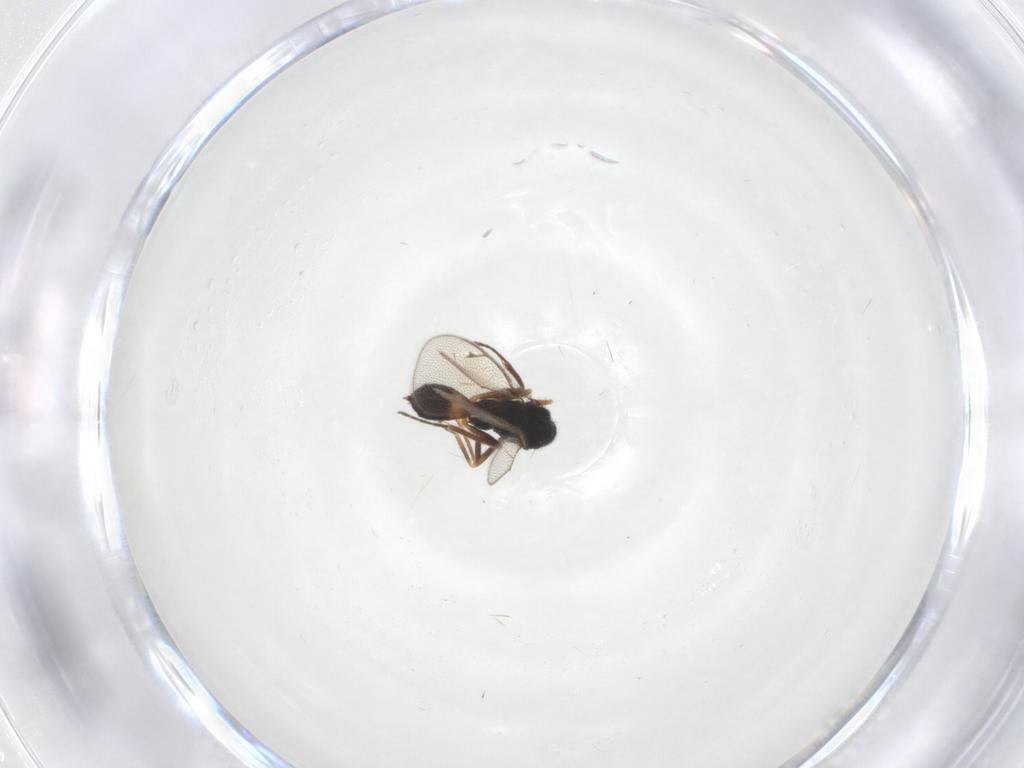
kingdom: Animalia
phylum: Arthropoda
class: Insecta
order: Hymenoptera
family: Eulophidae
